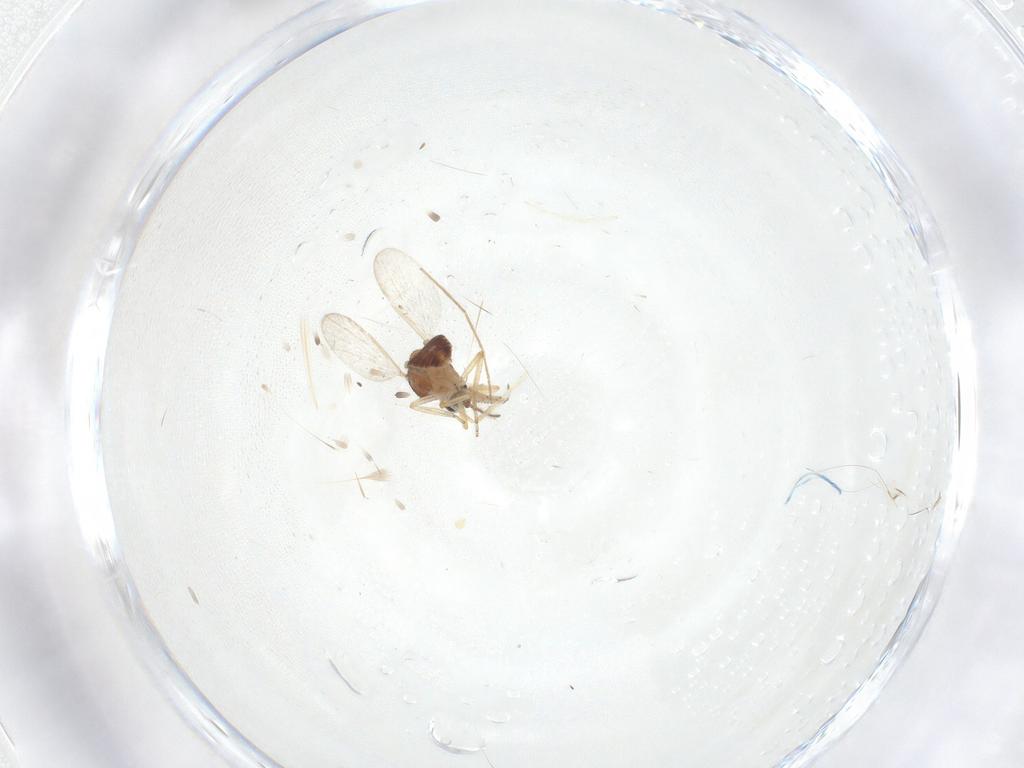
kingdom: Animalia
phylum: Arthropoda
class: Insecta
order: Diptera
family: Ceratopogonidae
